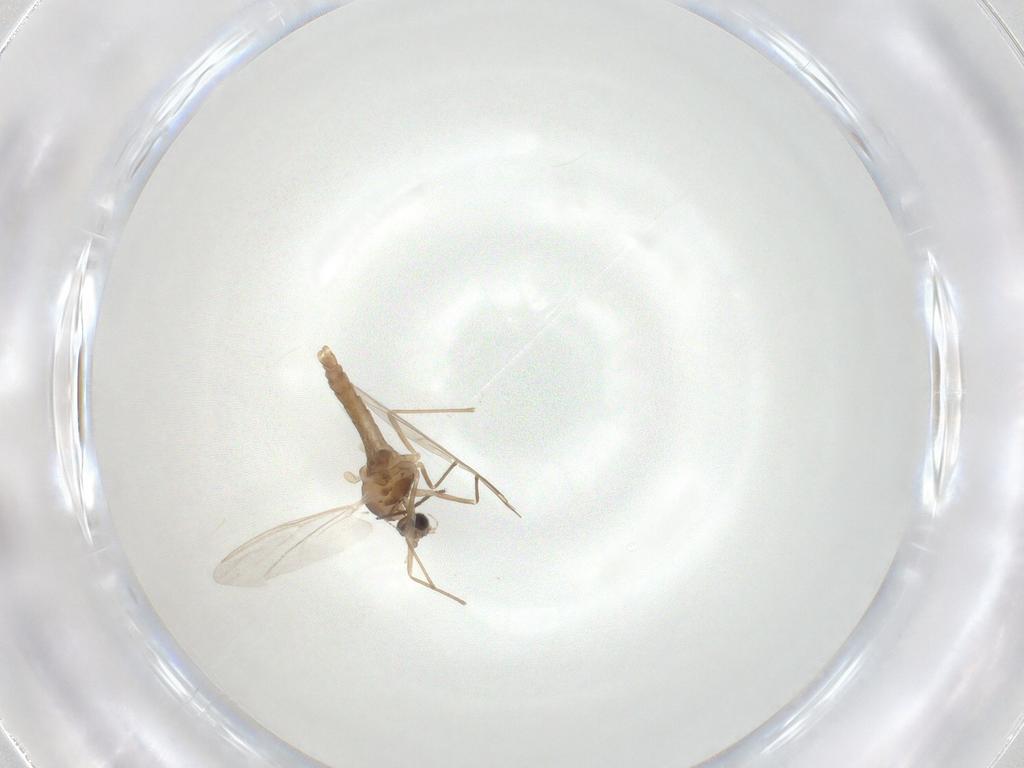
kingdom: Animalia
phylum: Arthropoda
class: Insecta
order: Diptera
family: Cecidomyiidae
